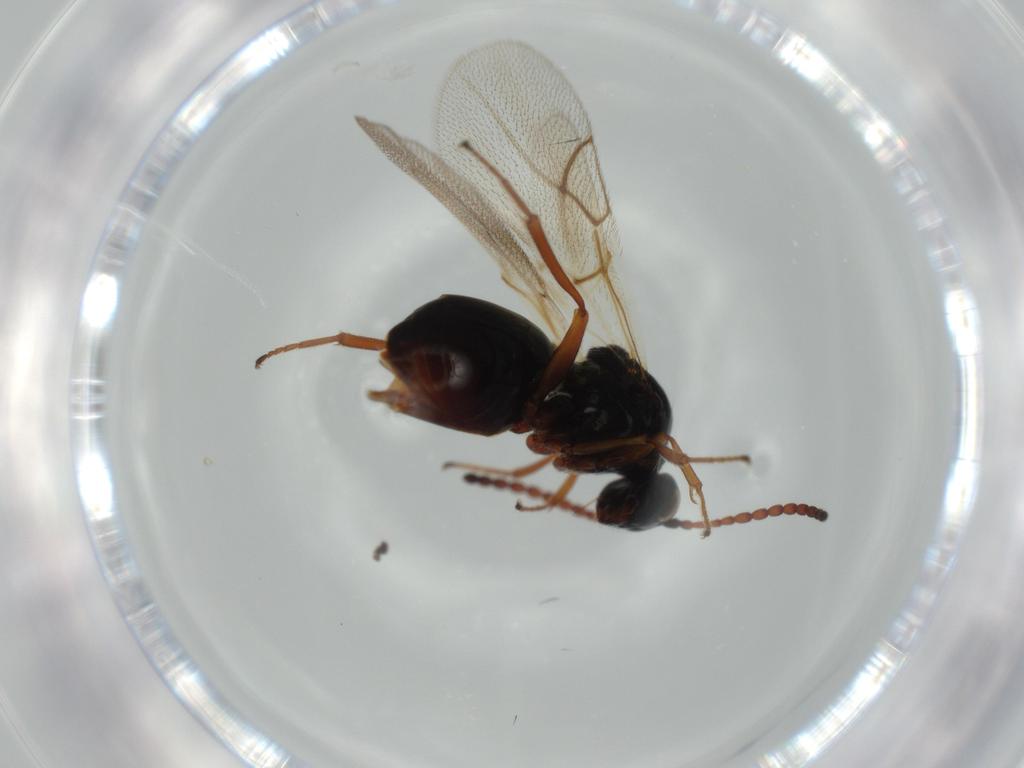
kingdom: Animalia
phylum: Arthropoda
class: Insecta
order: Hymenoptera
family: Figitidae
